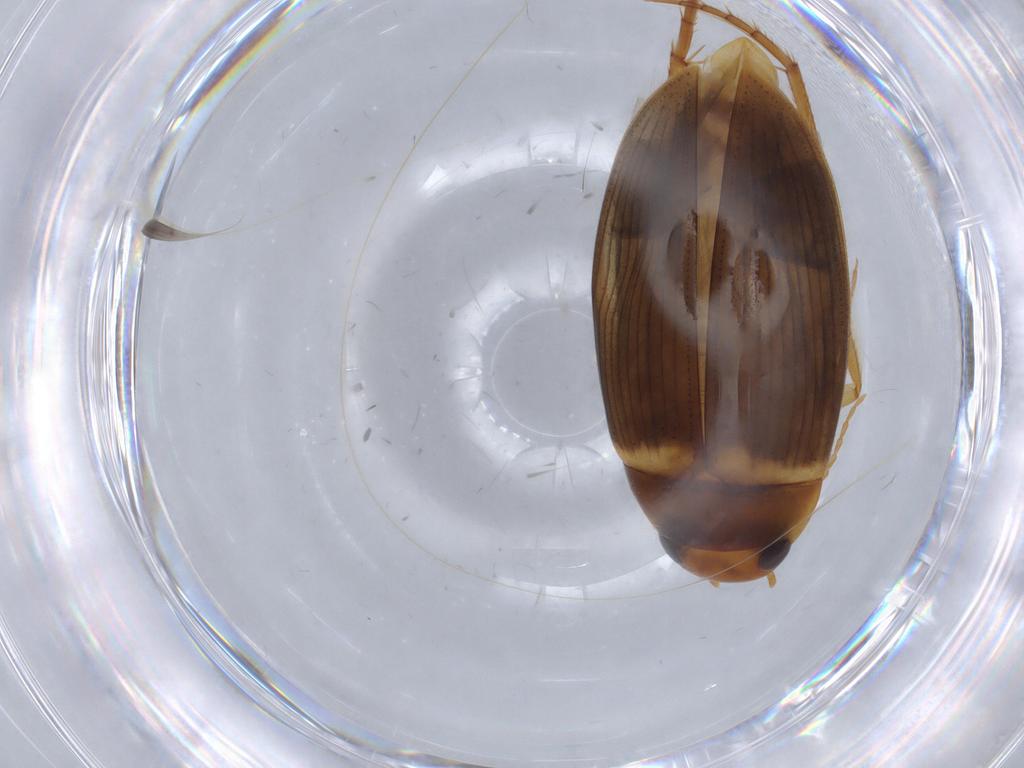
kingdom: Animalia
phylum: Arthropoda
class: Insecta
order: Coleoptera
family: Dytiscidae
